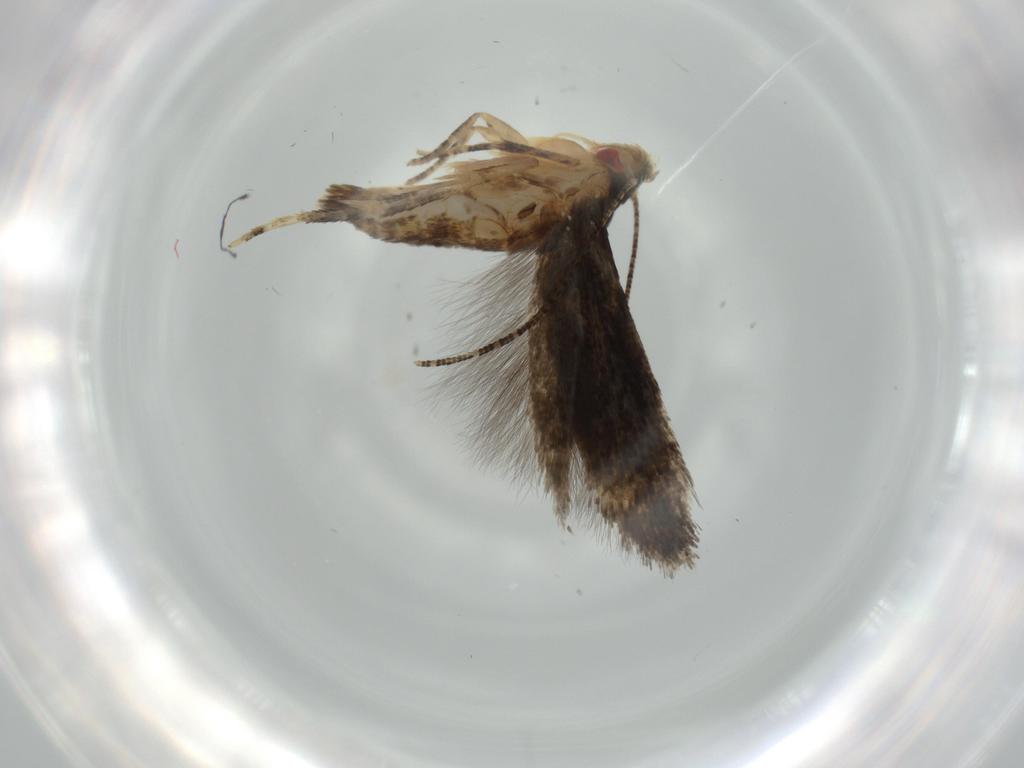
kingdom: Animalia
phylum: Arthropoda
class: Insecta
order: Lepidoptera
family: Momphidae
